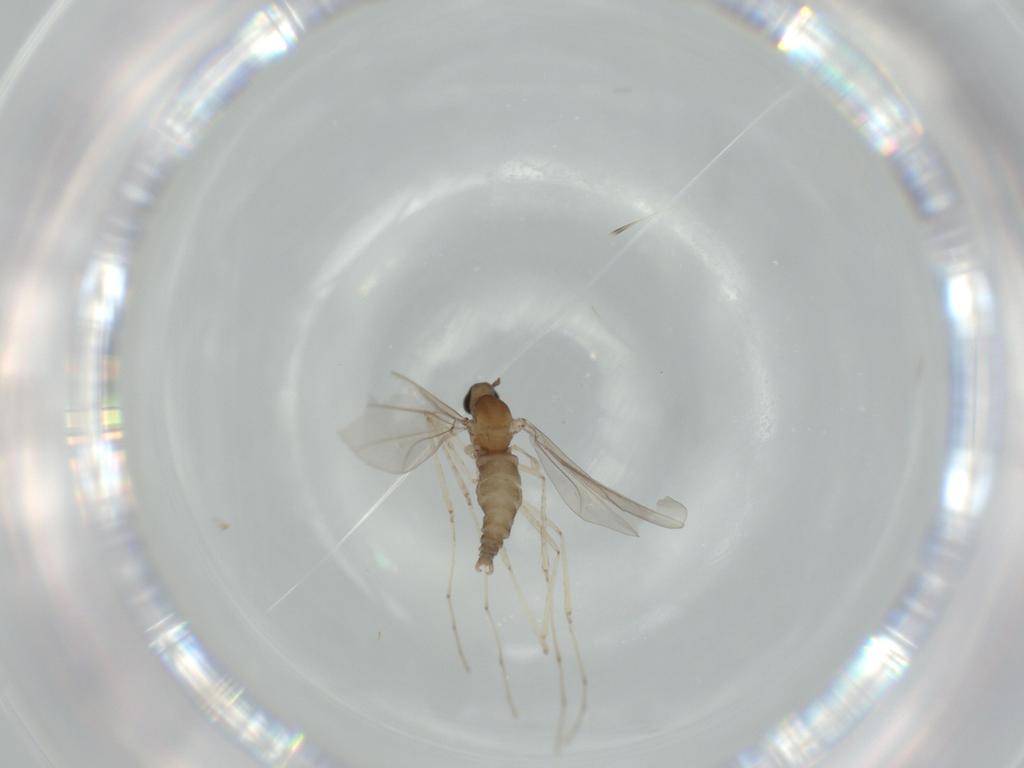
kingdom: Animalia
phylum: Arthropoda
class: Insecta
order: Diptera
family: Cecidomyiidae
